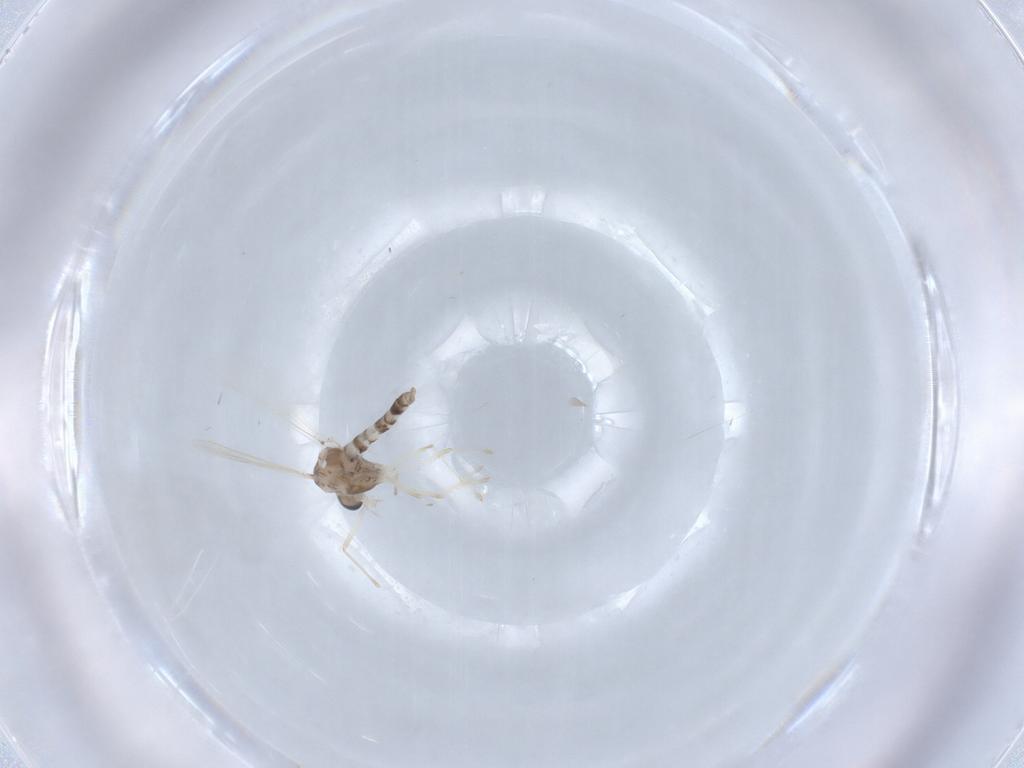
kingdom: Animalia
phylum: Arthropoda
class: Insecta
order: Diptera
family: Chironomidae
